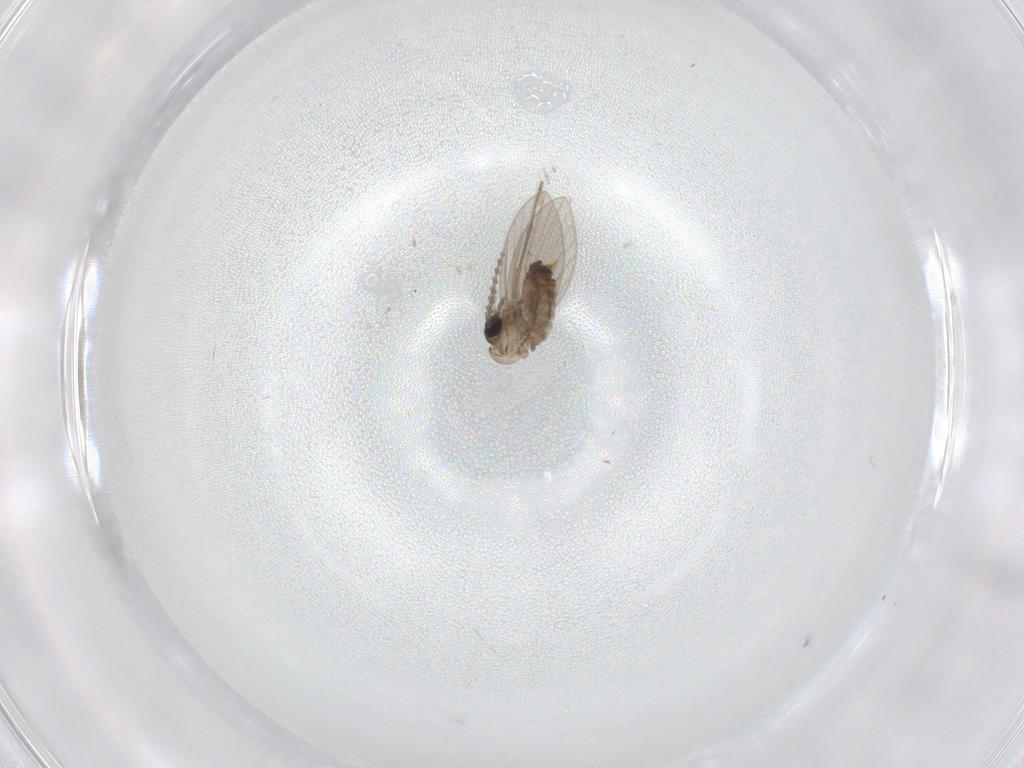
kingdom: Animalia
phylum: Arthropoda
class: Insecta
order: Diptera
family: Psychodidae
